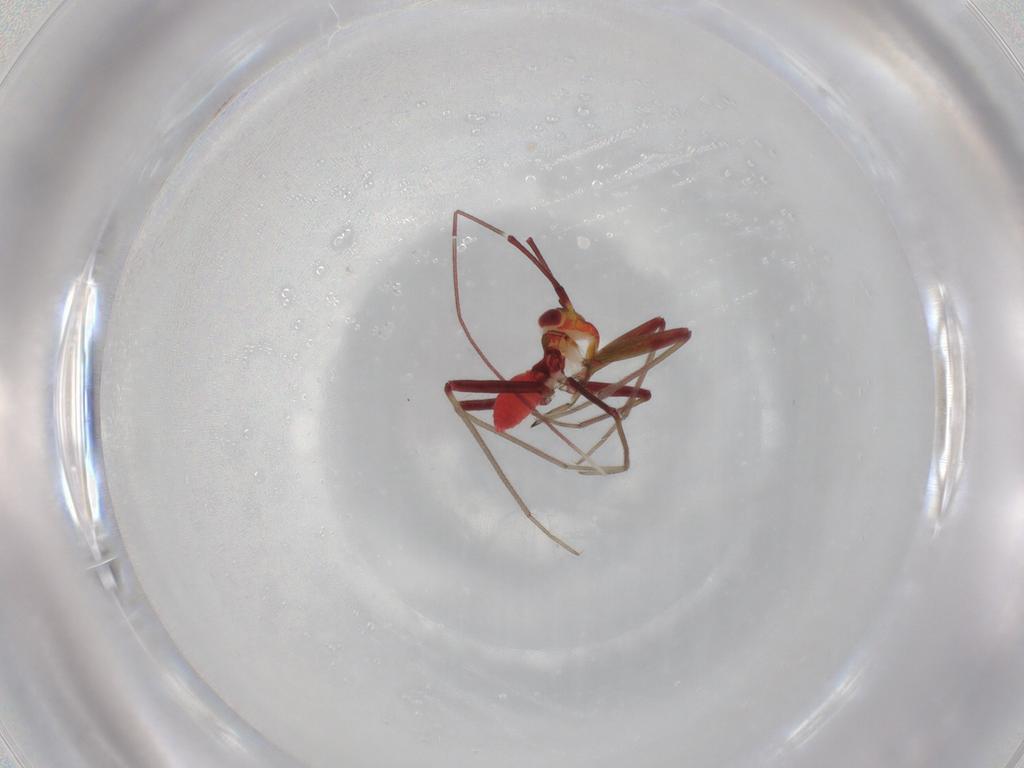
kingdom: Animalia
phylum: Arthropoda
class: Insecta
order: Hemiptera
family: Miridae
